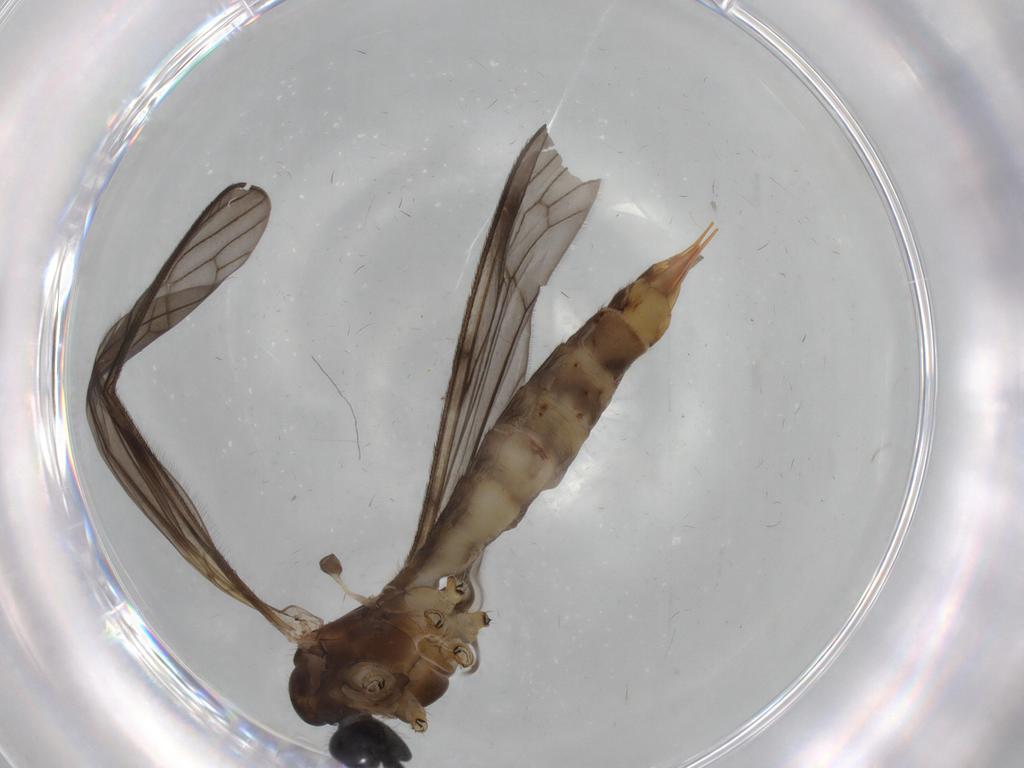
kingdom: Animalia
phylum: Arthropoda
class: Insecta
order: Diptera
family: Limoniidae
